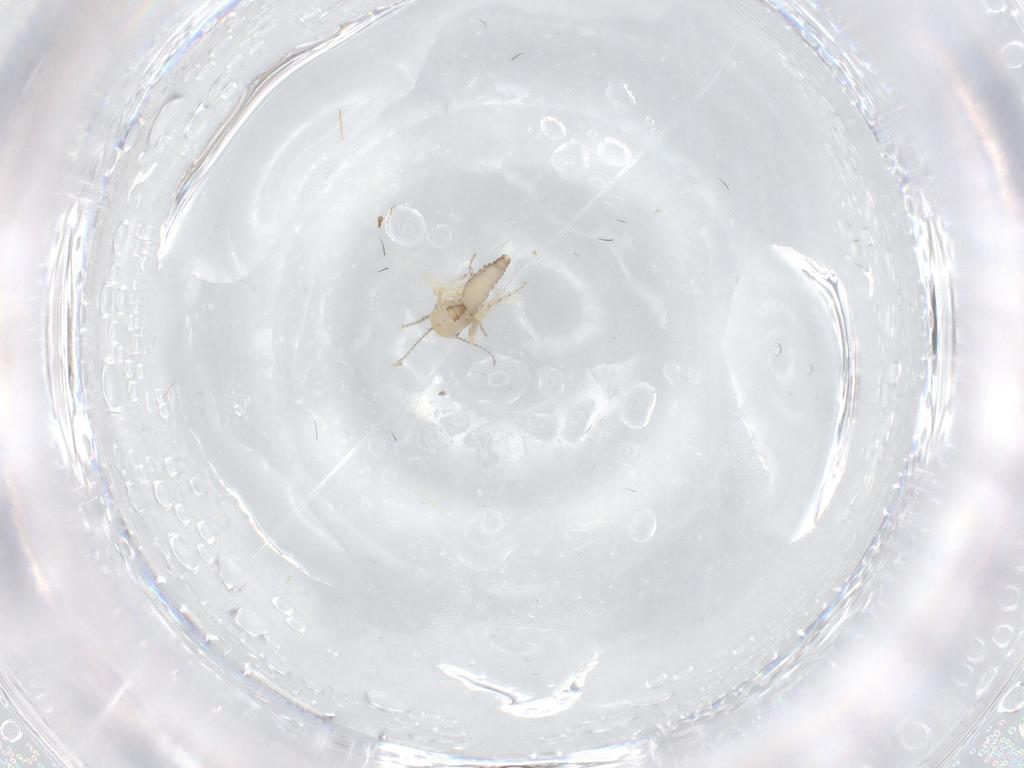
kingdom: Animalia
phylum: Arthropoda
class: Insecta
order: Diptera
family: Ceratopogonidae
